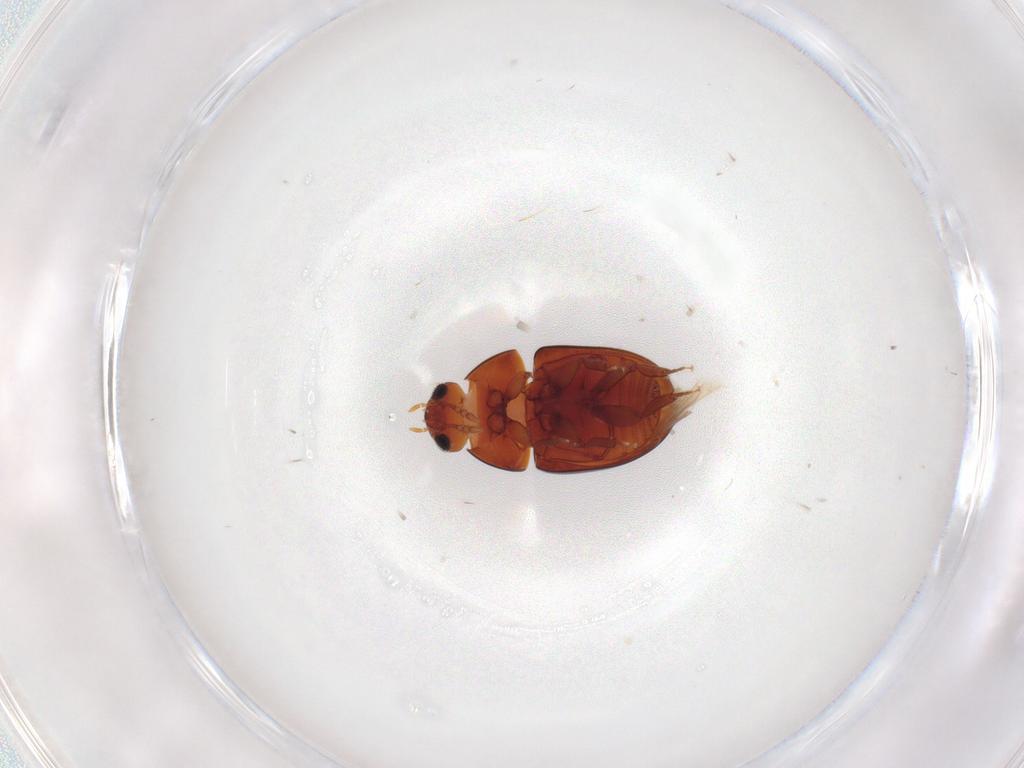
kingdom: Animalia
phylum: Arthropoda
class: Insecta
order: Coleoptera
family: Phalacridae
